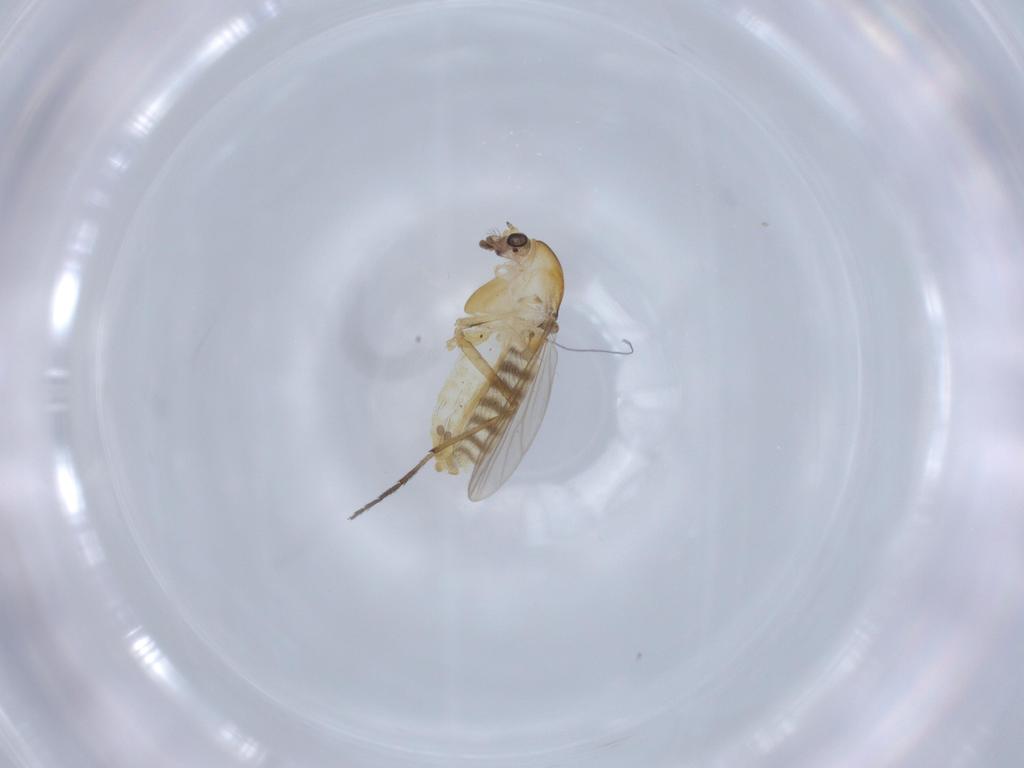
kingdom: Animalia
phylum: Arthropoda
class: Insecta
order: Diptera
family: Chironomidae
